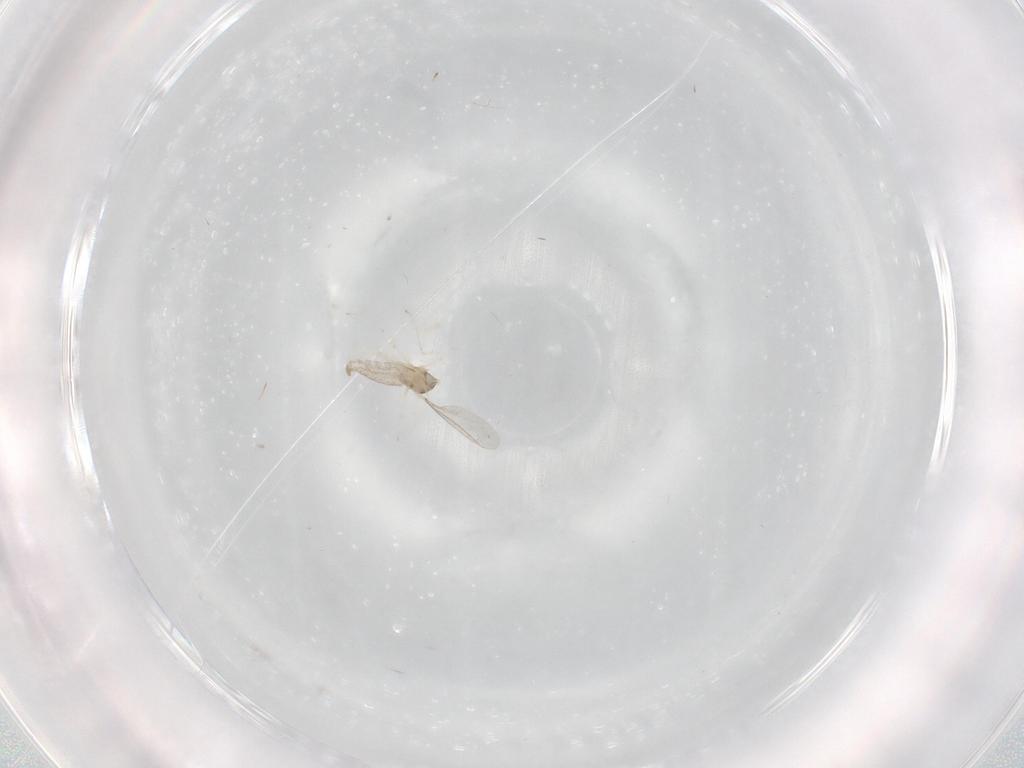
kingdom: Animalia
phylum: Arthropoda
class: Insecta
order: Diptera
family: Cecidomyiidae
